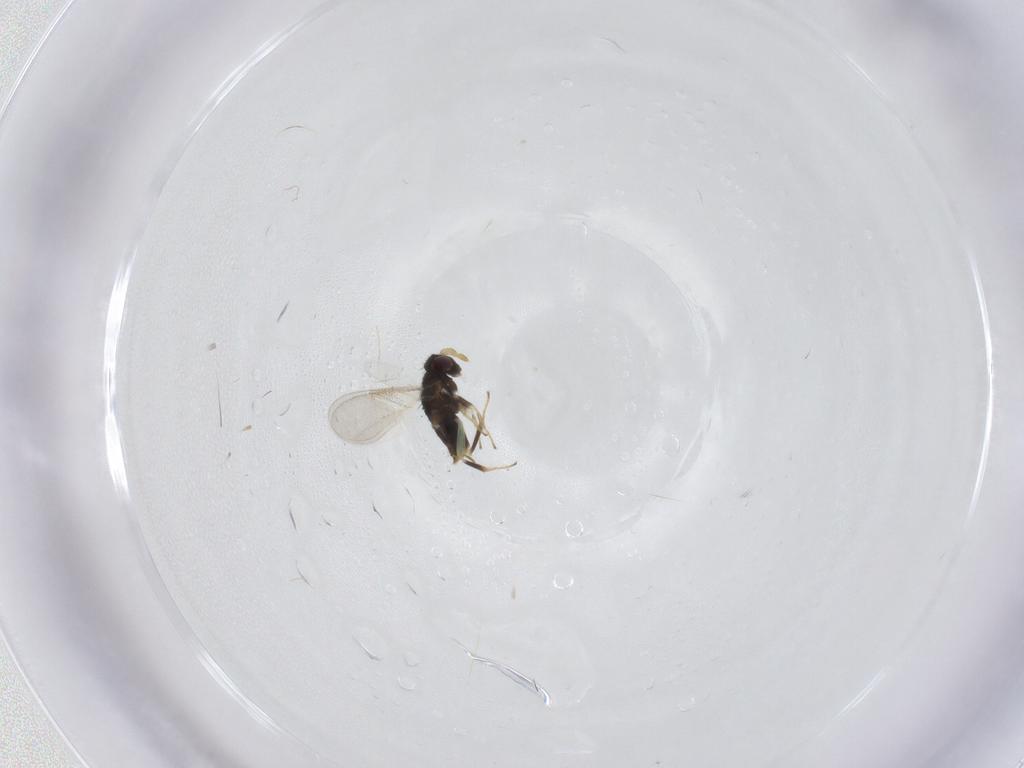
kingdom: Animalia
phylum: Arthropoda
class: Insecta
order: Hymenoptera
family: Aphelinidae
